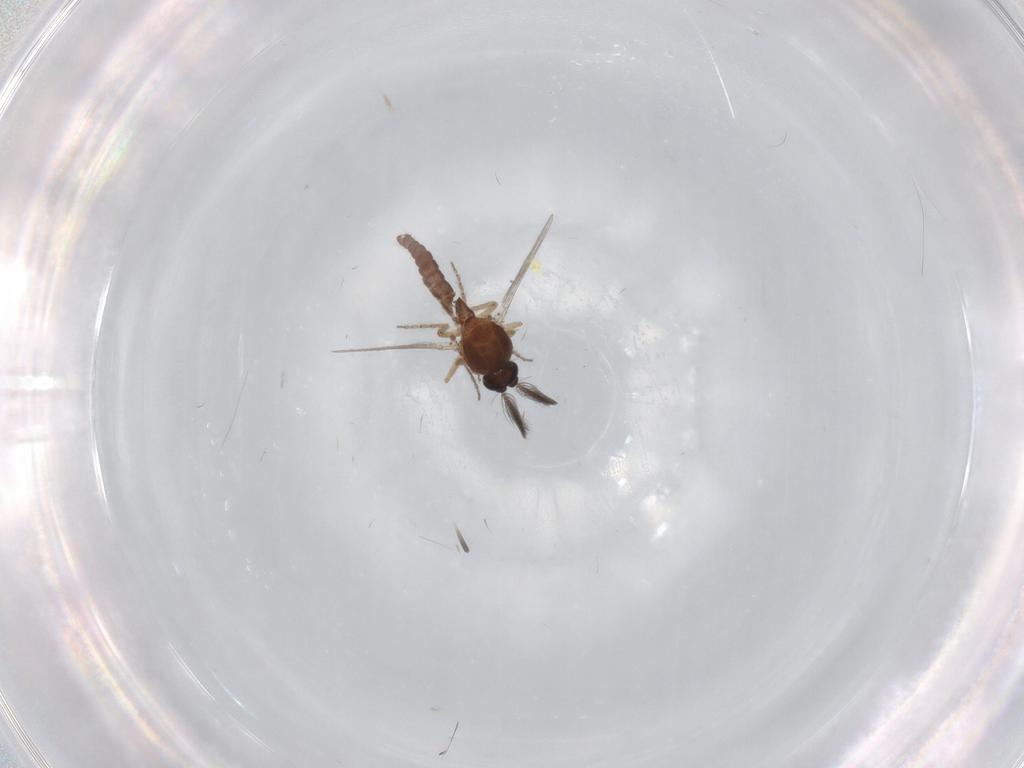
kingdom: Animalia
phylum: Arthropoda
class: Insecta
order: Diptera
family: Ceratopogonidae
